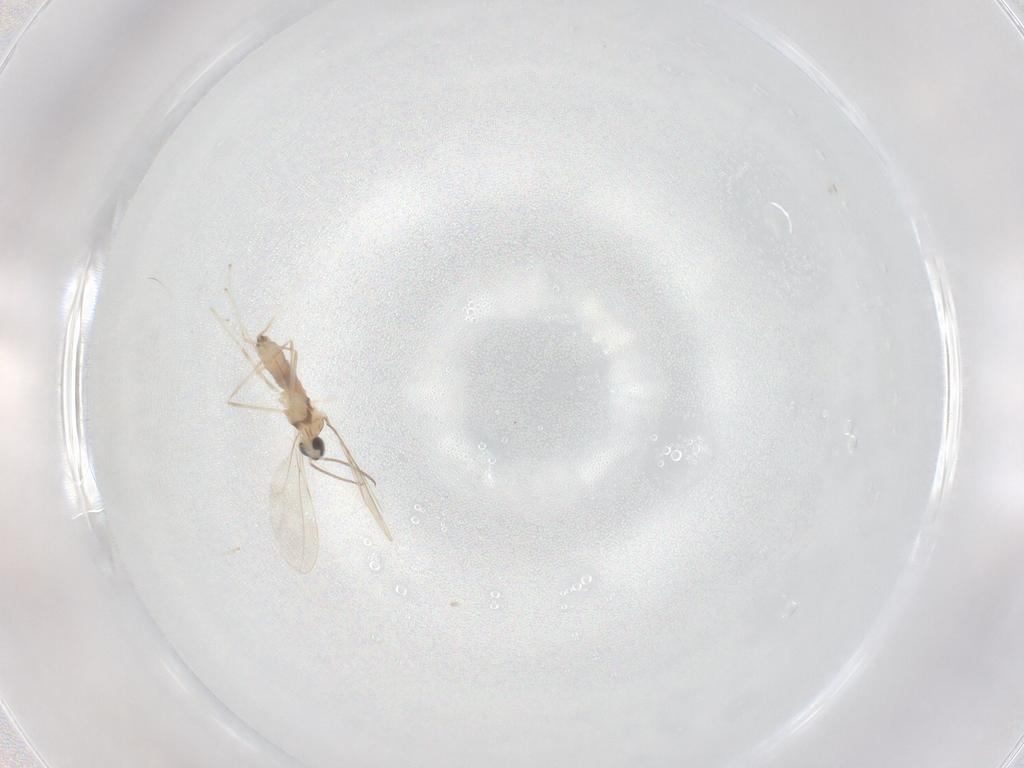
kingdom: Animalia
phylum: Arthropoda
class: Insecta
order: Diptera
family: Cecidomyiidae
